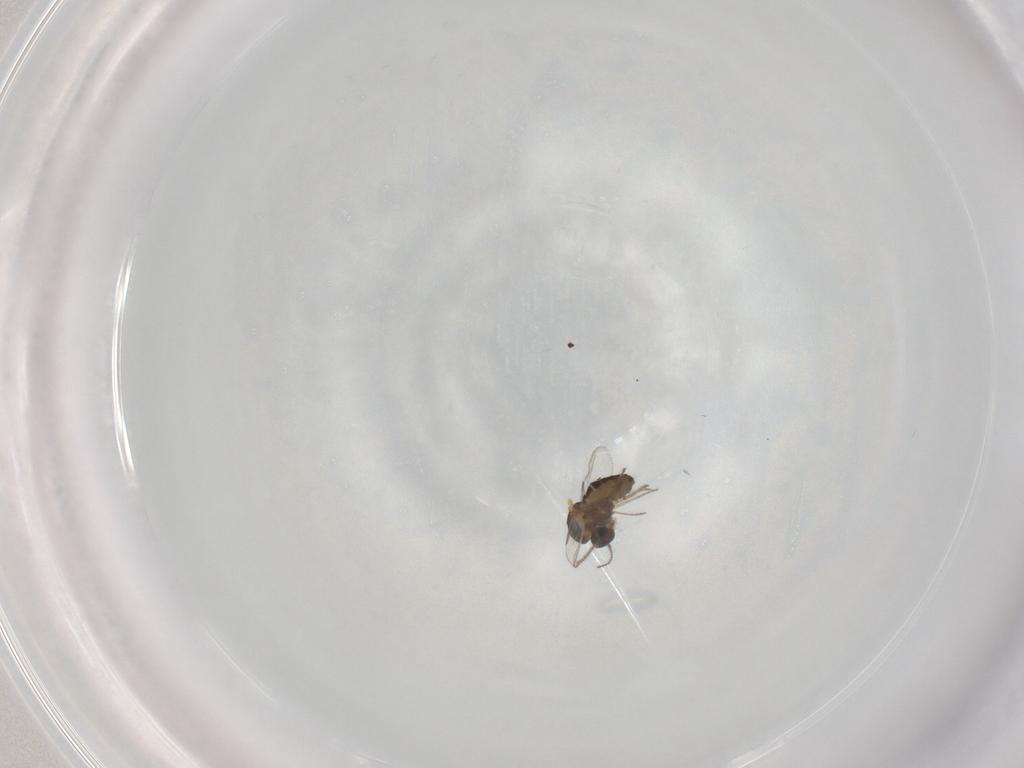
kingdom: Animalia
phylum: Arthropoda
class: Insecta
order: Diptera
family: Ceratopogonidae
